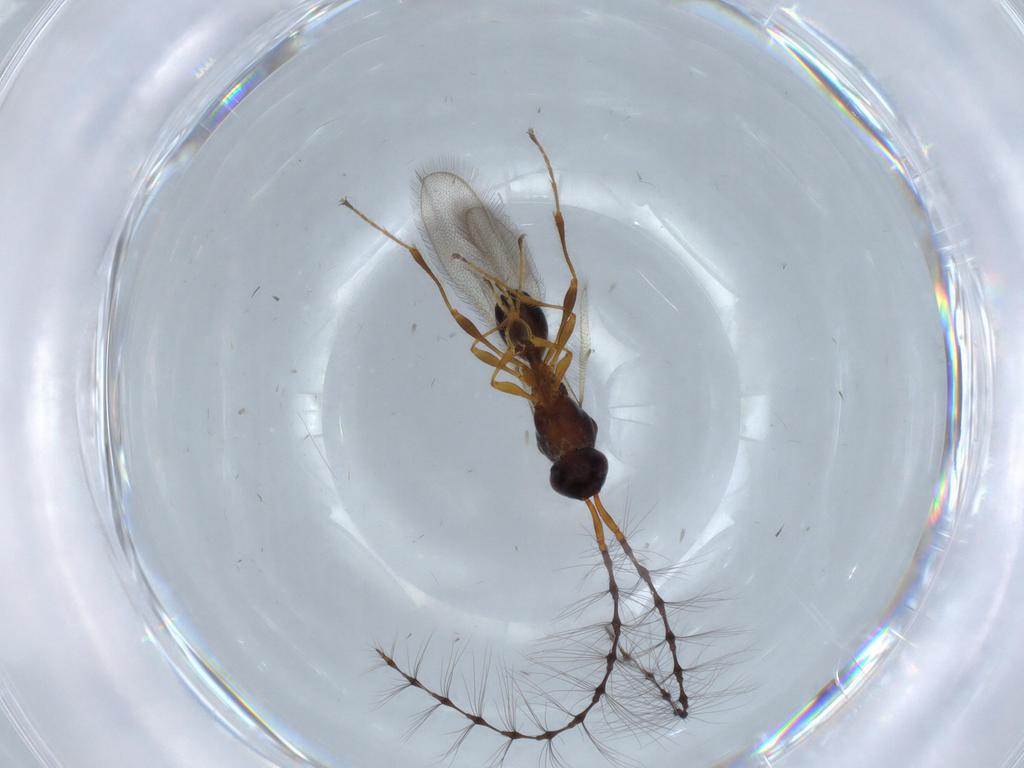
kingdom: Animalia
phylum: Arthropoda
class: Insecta
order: Hymenoptera
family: Diapriidae
